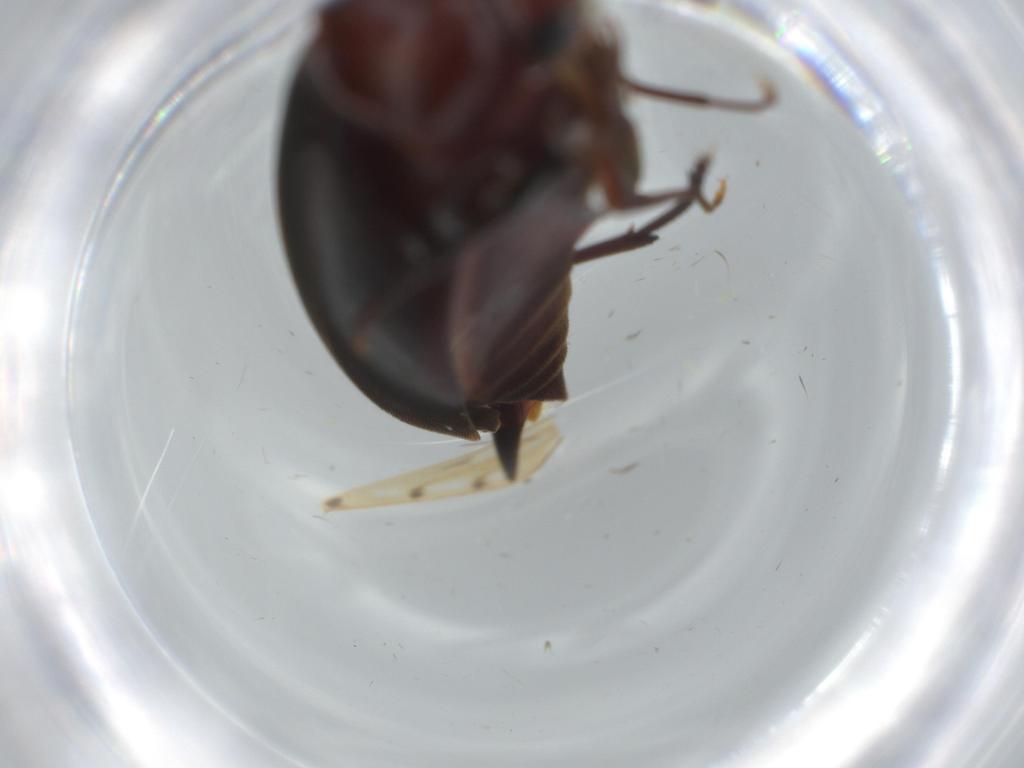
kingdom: Animalia
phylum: Arthropoda
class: Insecta
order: Coleoptera
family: Mordellidae
